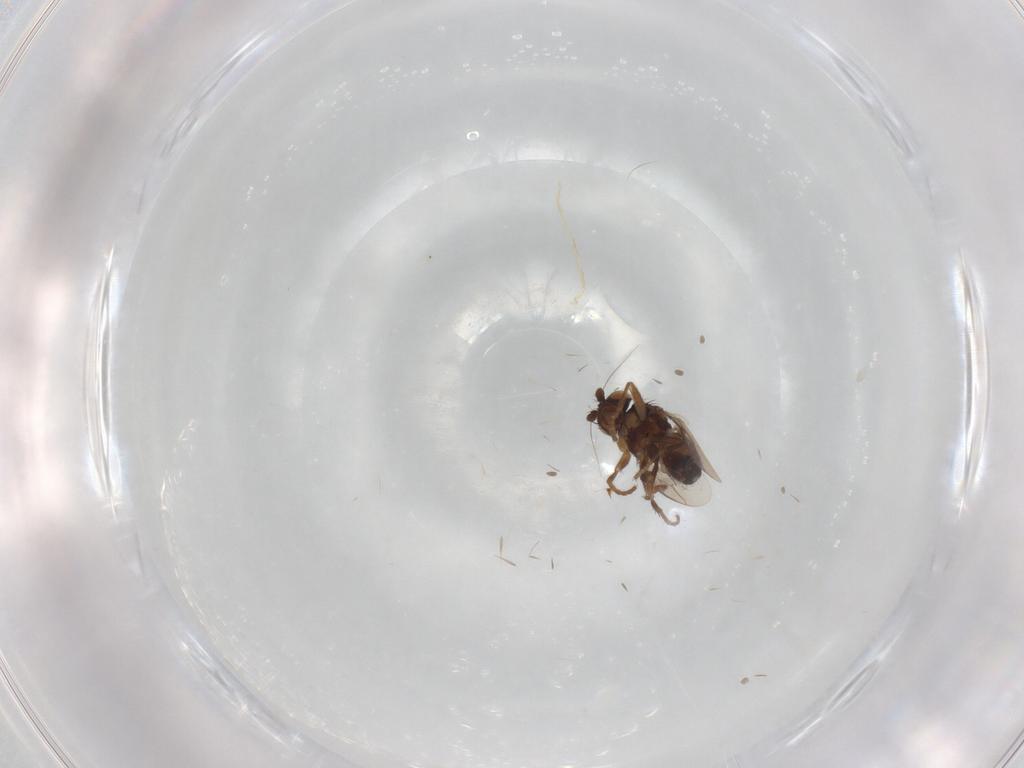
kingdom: Animalia
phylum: Arthropoda
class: Insecta
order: Diptera
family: Sphaeroceridae
